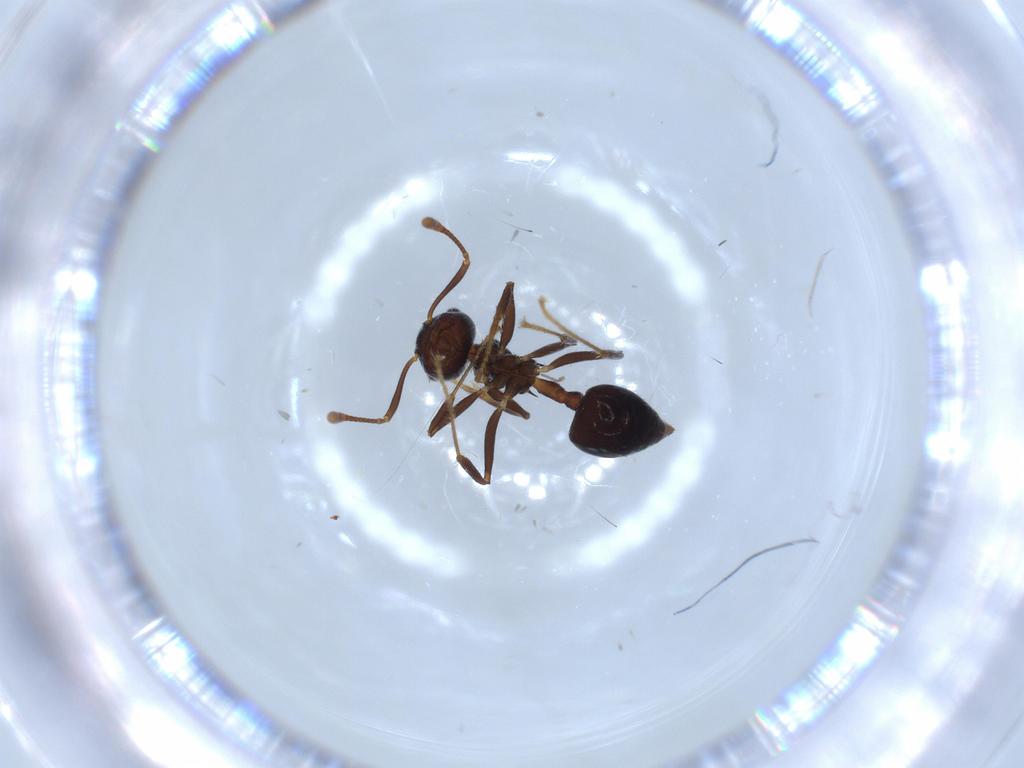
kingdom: Animalia
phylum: Arthropoda
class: Insecta
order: Hymenoptera
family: Formicidae
